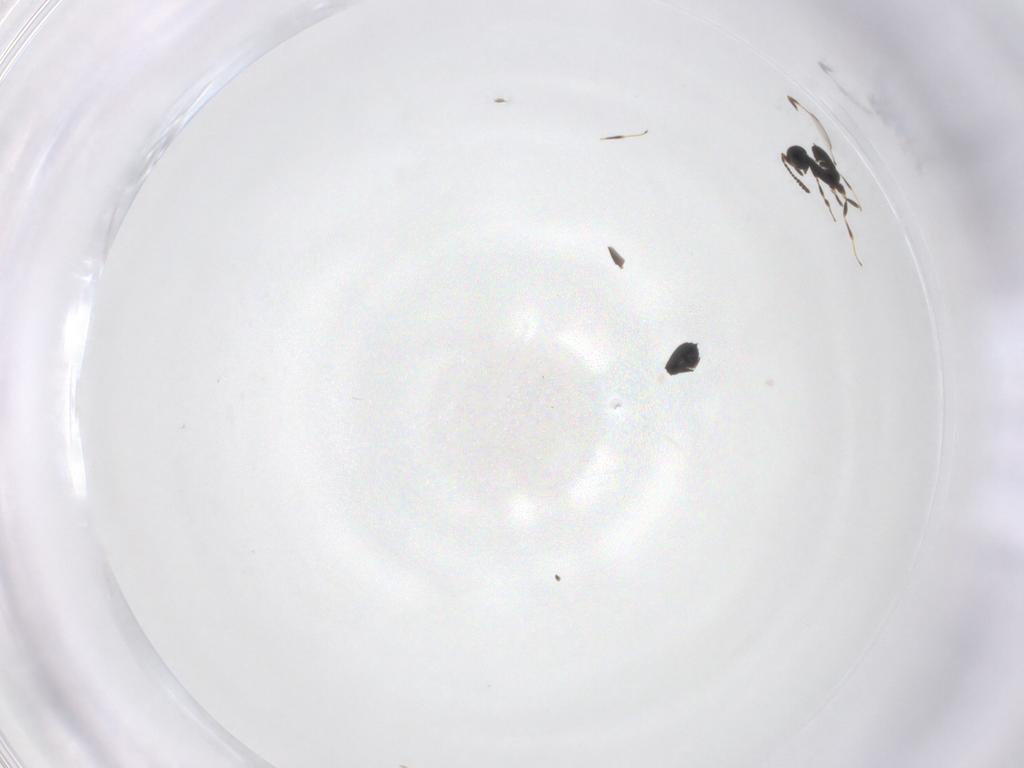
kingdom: Animalia
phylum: Arthropoda
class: Insecta
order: Hymenoptera
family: Scelionidae
